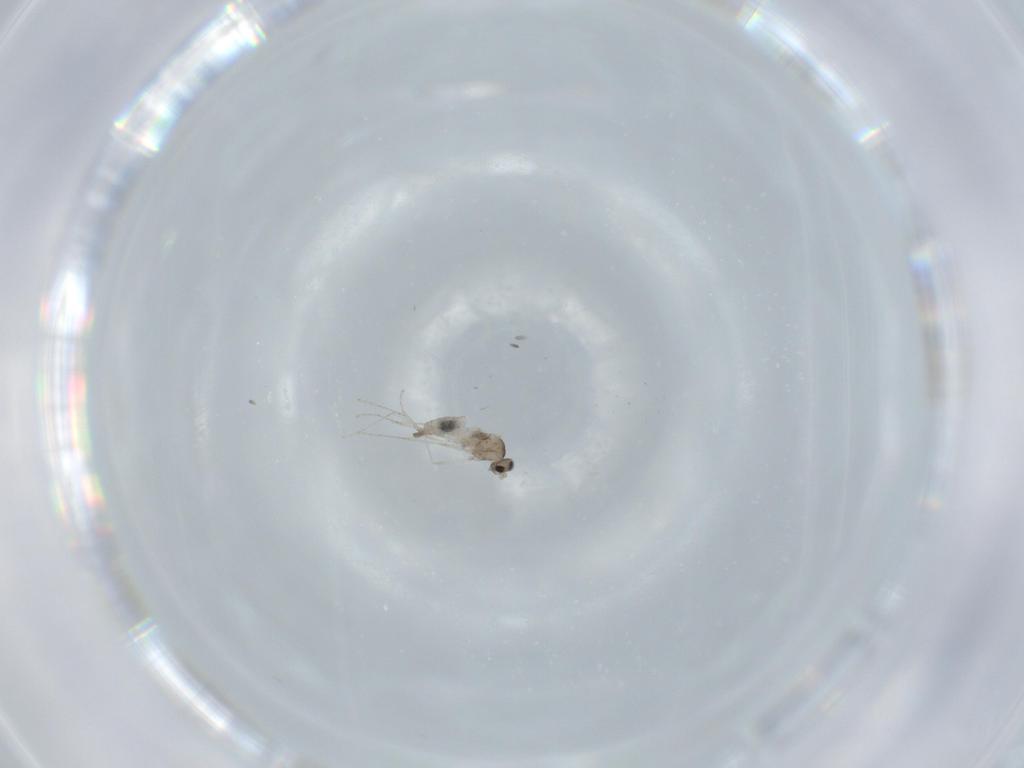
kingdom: Animalia
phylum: Arthropoda
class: Insecta
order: Diptera
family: Cecidomyiidae
